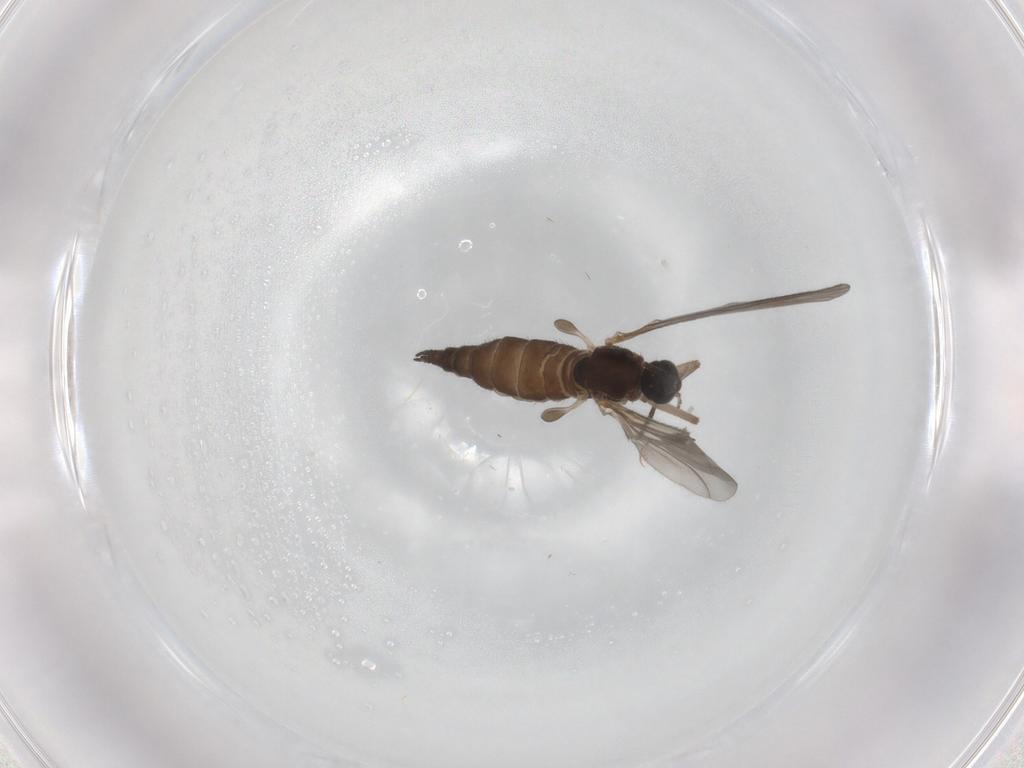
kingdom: Animalia
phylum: Arthropoda
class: Insecta
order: Diptera
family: Sciaridae
